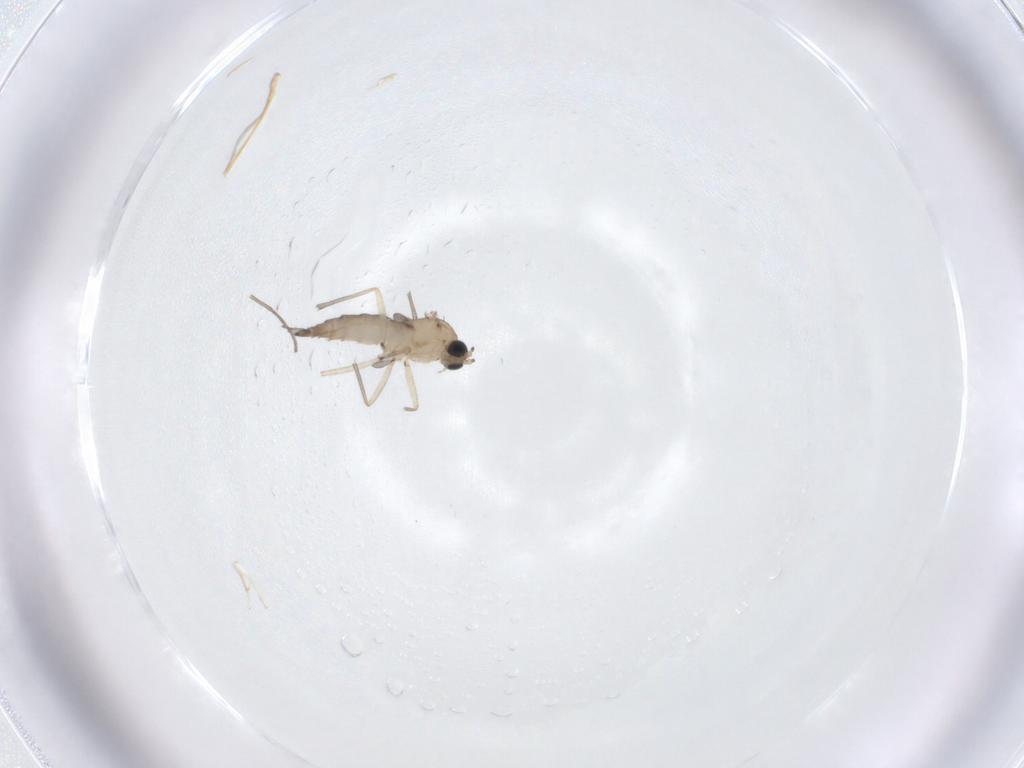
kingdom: Animalia
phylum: Arthropoda
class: Insecta
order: Diptera
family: Sciaridae
